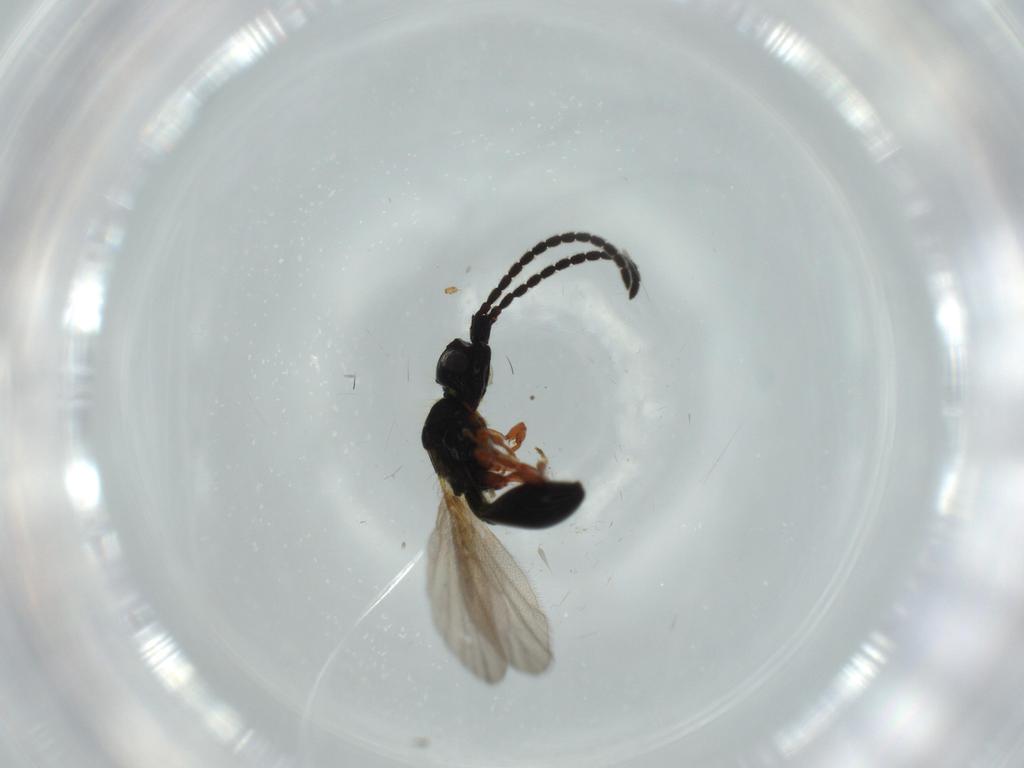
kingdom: Animalia
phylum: Arthropoda
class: Insecta
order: Hymenoptera
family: Diapriidae
